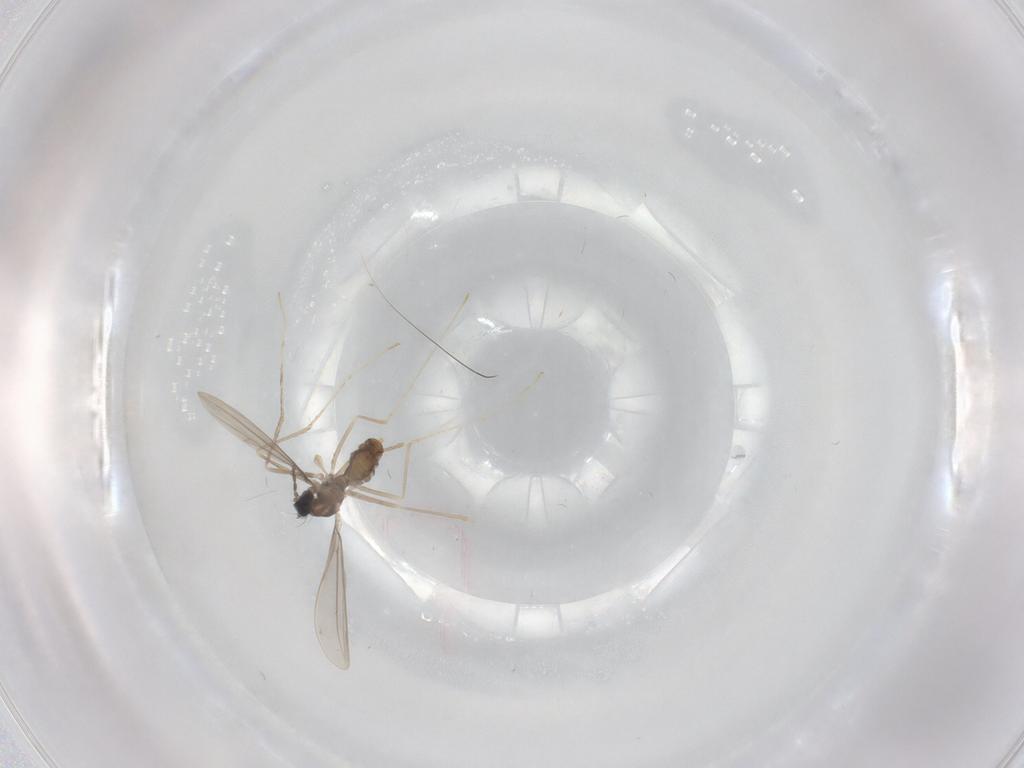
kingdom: Animalia
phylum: Arthropoda
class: Insecta
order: Diptera
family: Cecidomyiidae
